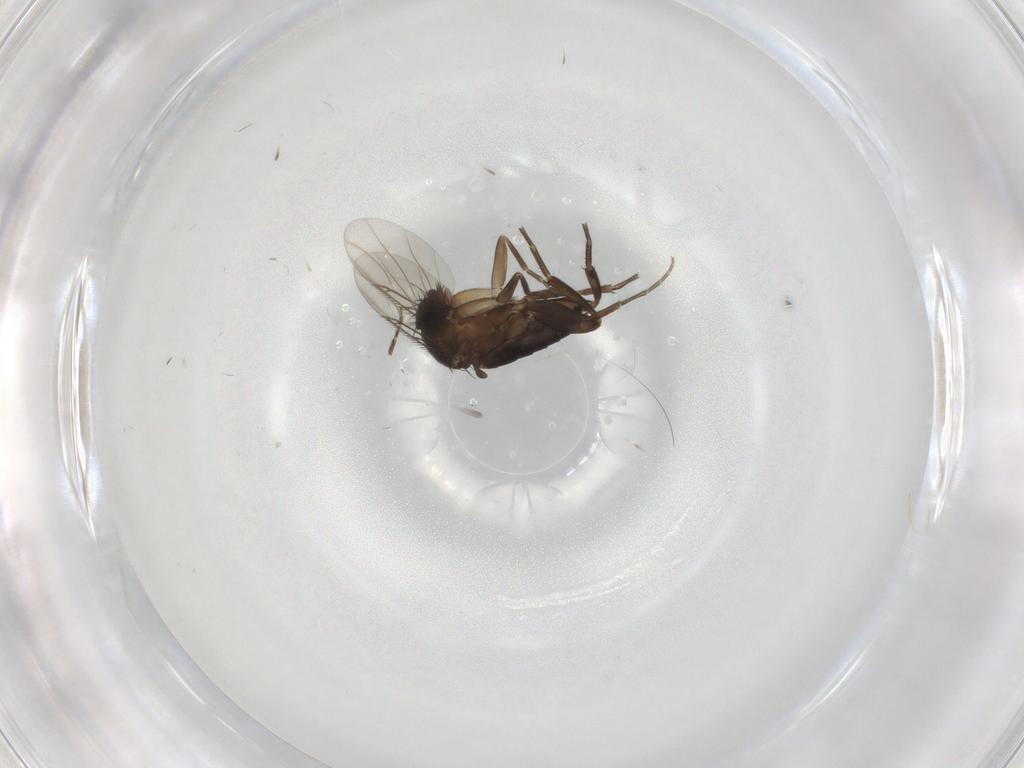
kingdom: Animalia
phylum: Arthropoda
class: Insecta
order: Diptera
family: Phoridae
